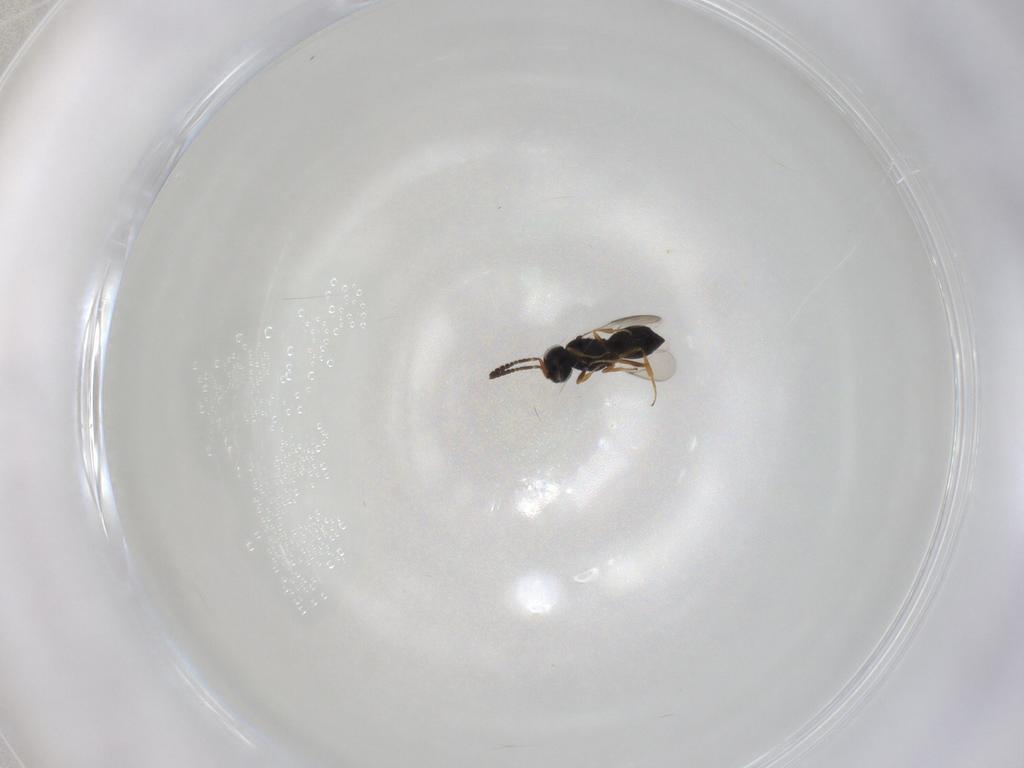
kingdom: Animalia
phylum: Arthropoda
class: Insecta
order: Hymenoptera
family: Scelionidae
